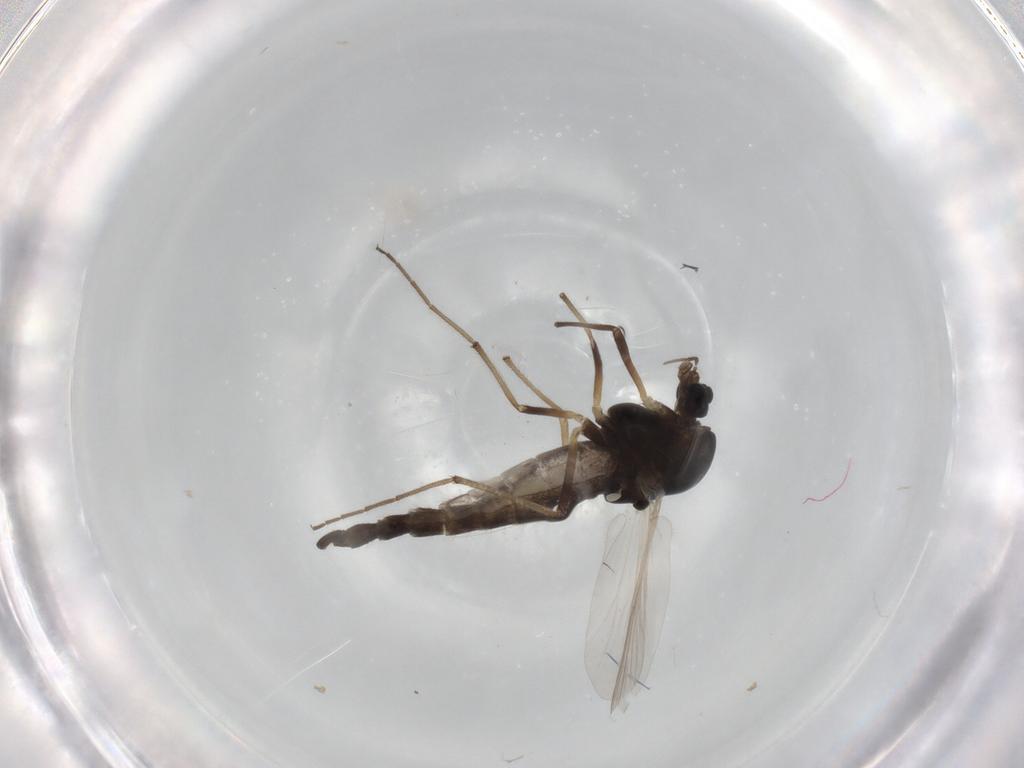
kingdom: Animalia
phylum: Arthropoda
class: Insecta
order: Diptera
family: Chironomidae
